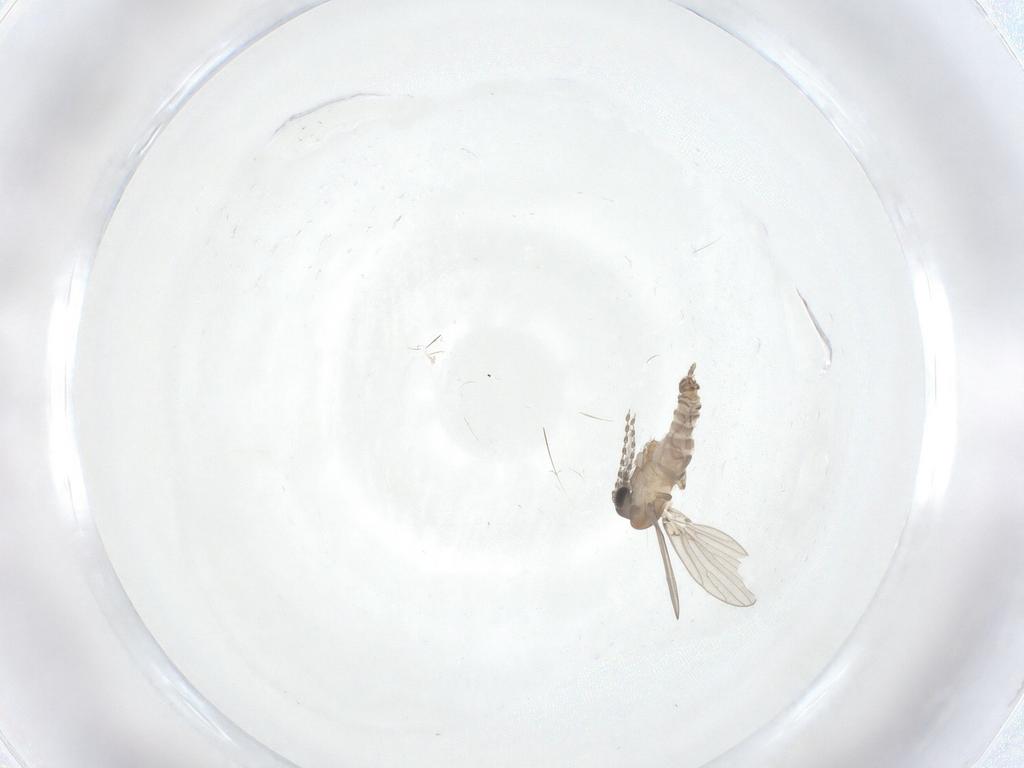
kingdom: Animalia
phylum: Arthropoda
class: Insecta
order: Diptera
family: Psychodidae
